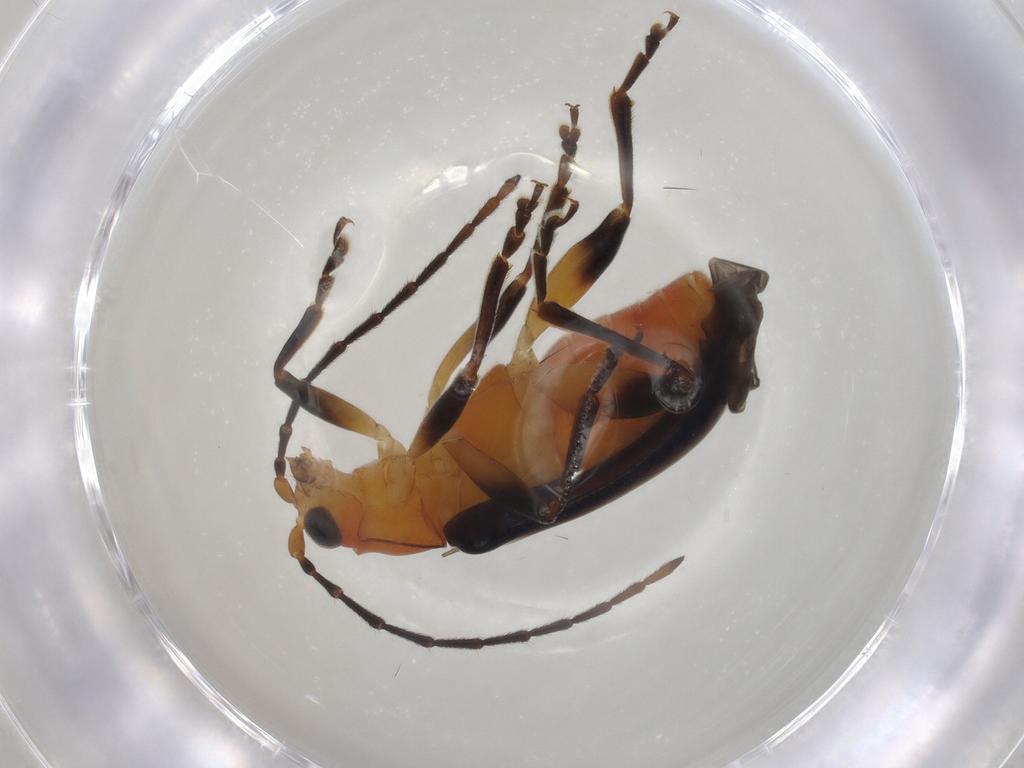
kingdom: Animalia
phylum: Arthropoda
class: Insecta
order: Coleoptera
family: Chrysomelidae
